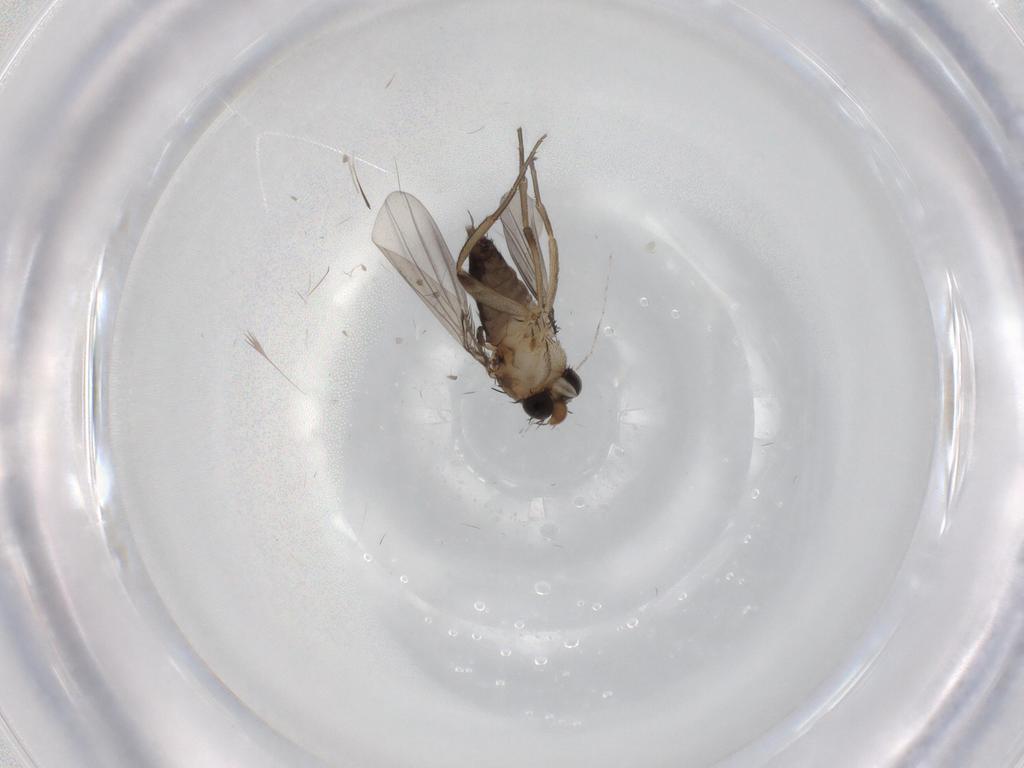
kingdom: Animalia
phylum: Arthropoda
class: Insecta
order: Diptera
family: Phoridae
